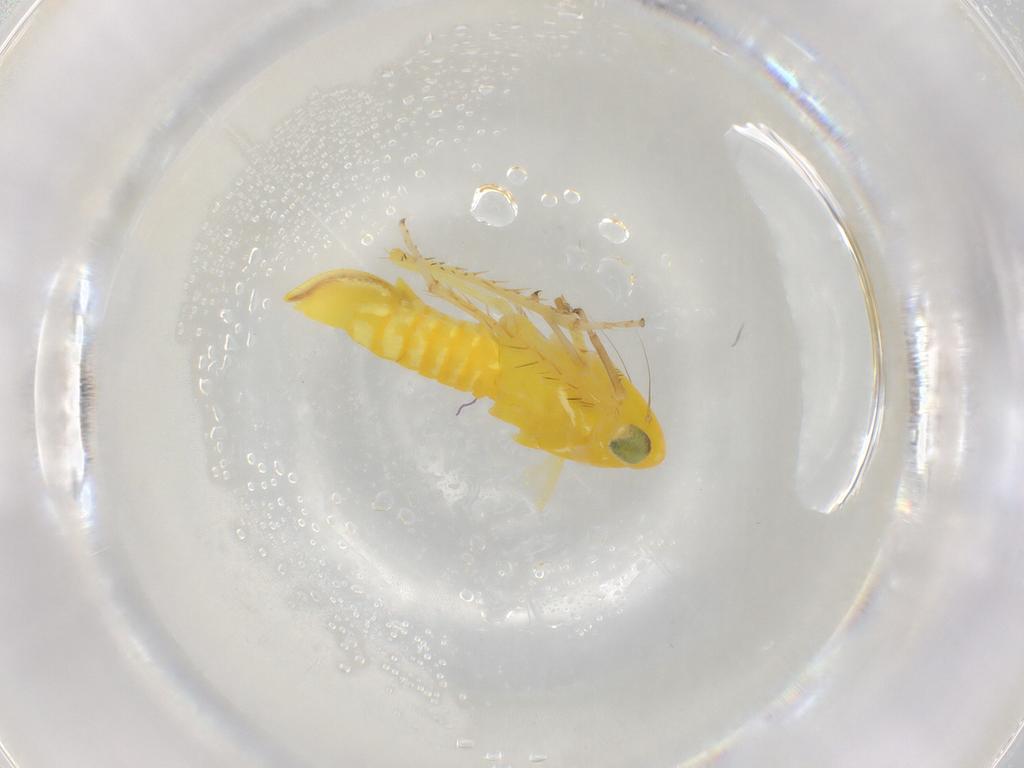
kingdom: Animalia
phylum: Arthropoda
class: Insecta
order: Hemiptera
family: Cicadellidae
